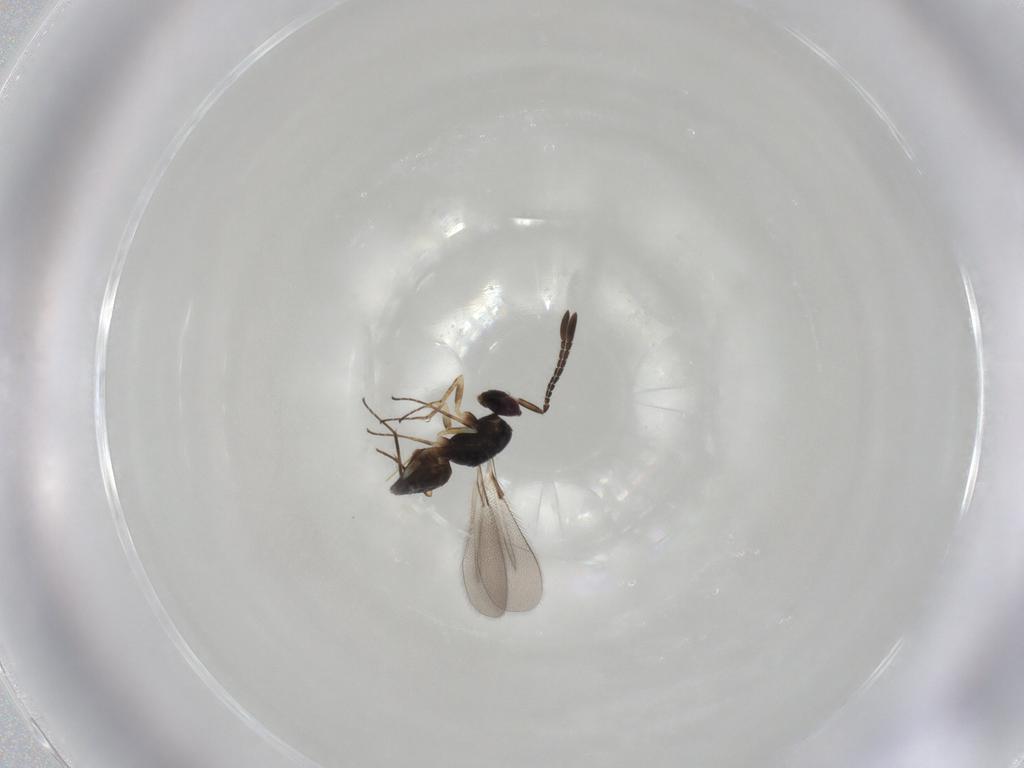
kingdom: Animalia
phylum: Arthropoda
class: Insecta
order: Hymenoptera
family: Mymaridae
